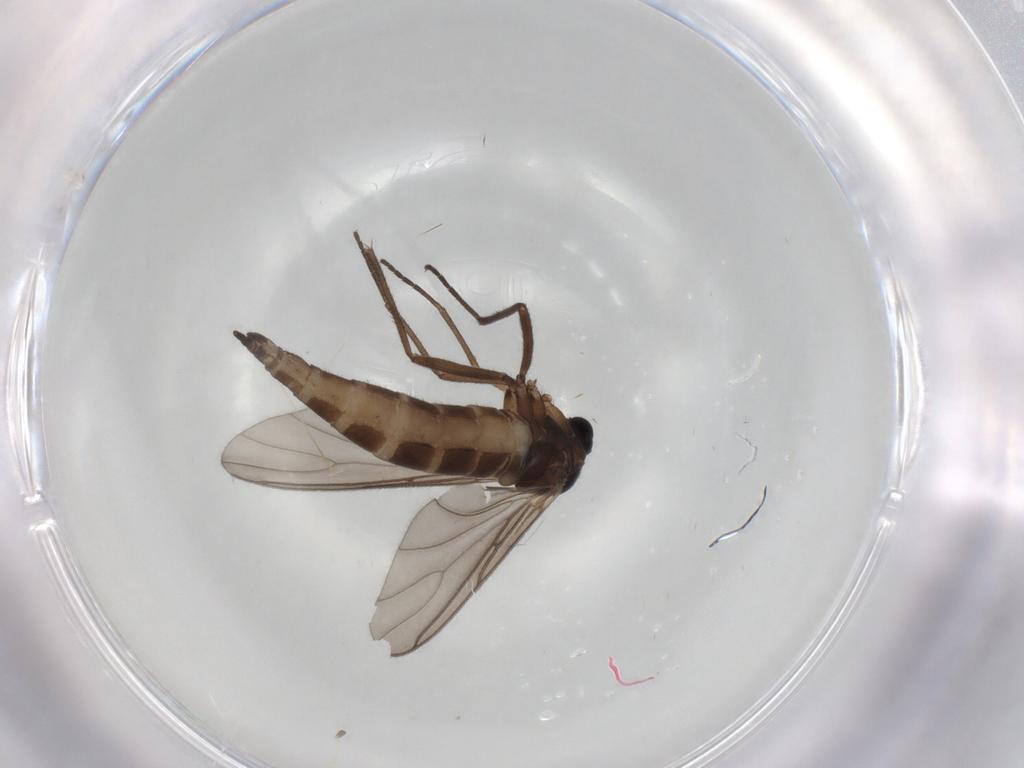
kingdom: Animalia
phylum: Arthropoda
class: Insecta
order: Diptera
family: Sciaridae
